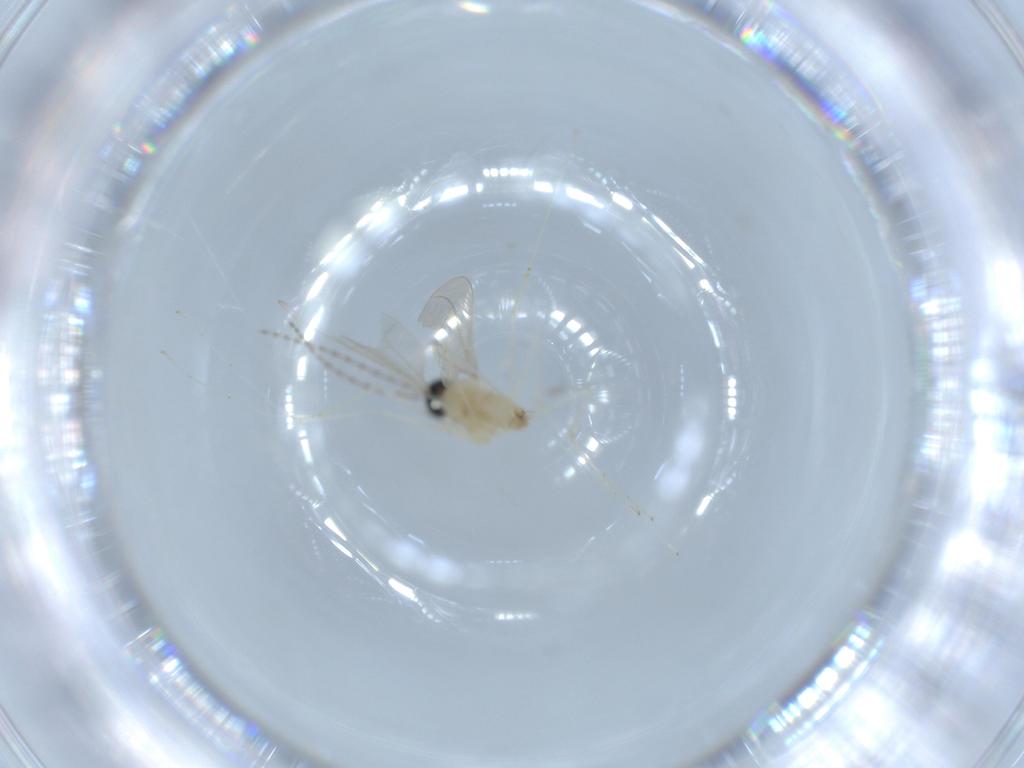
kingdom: Animalia
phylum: Arthropoda
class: Insecta
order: Diptera
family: Cecidomyiidae
